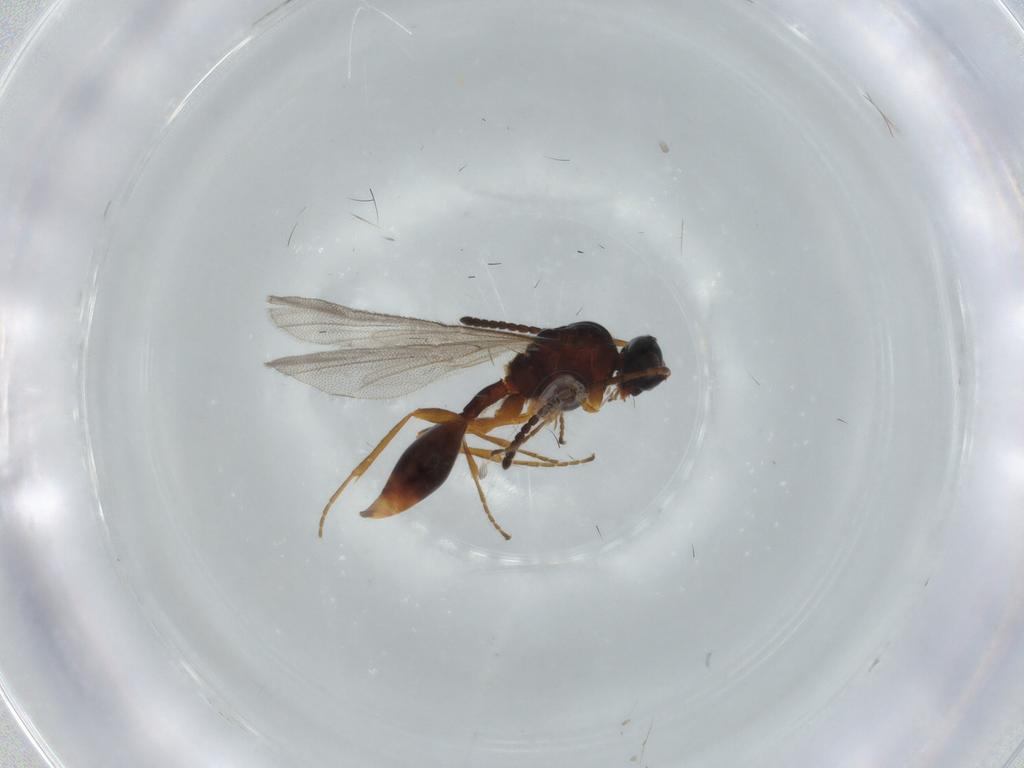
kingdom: Animalia
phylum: Arthropoda
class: Insecta
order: Hymenoptera
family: Diapriidae
